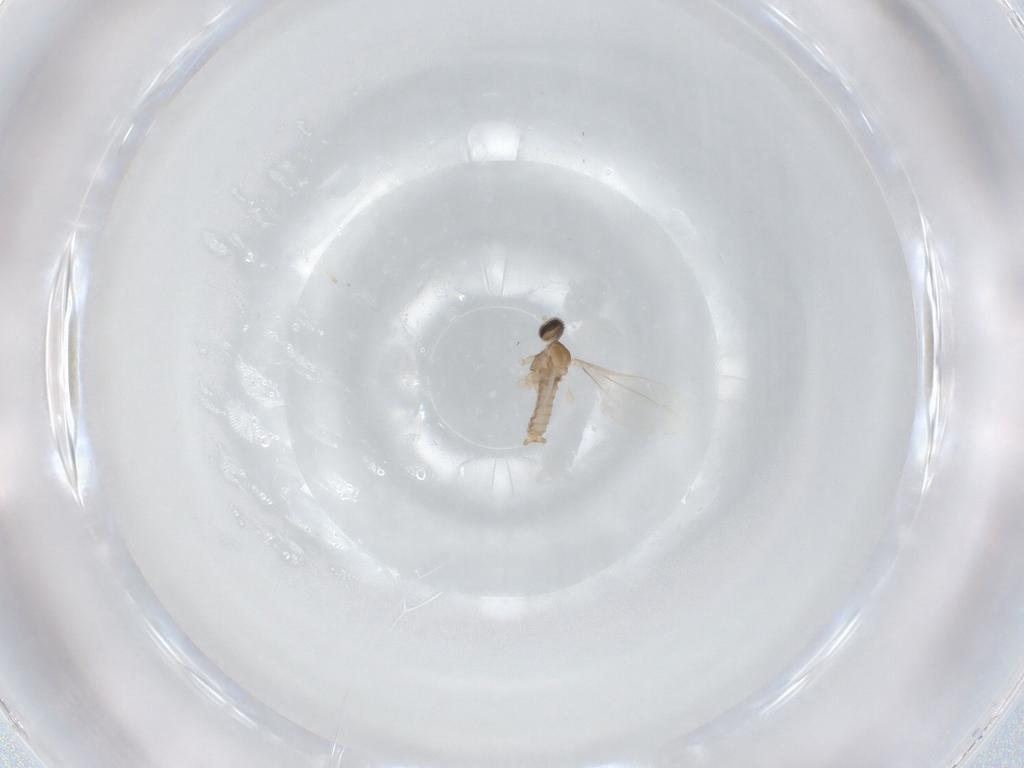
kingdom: Animalia
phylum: Arthropoda
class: Insecta
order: Diptera
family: Cecidomyiidae
